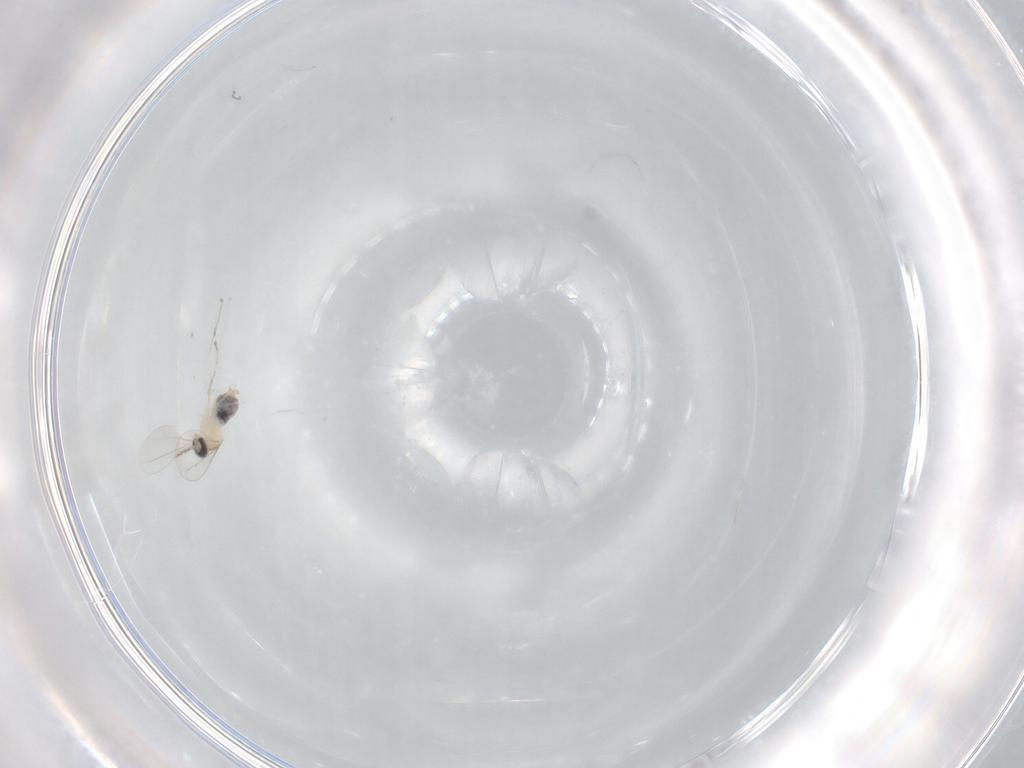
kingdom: Animalia
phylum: Arthropoda
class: Insecta
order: Diptera
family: Cecidomyiidae
